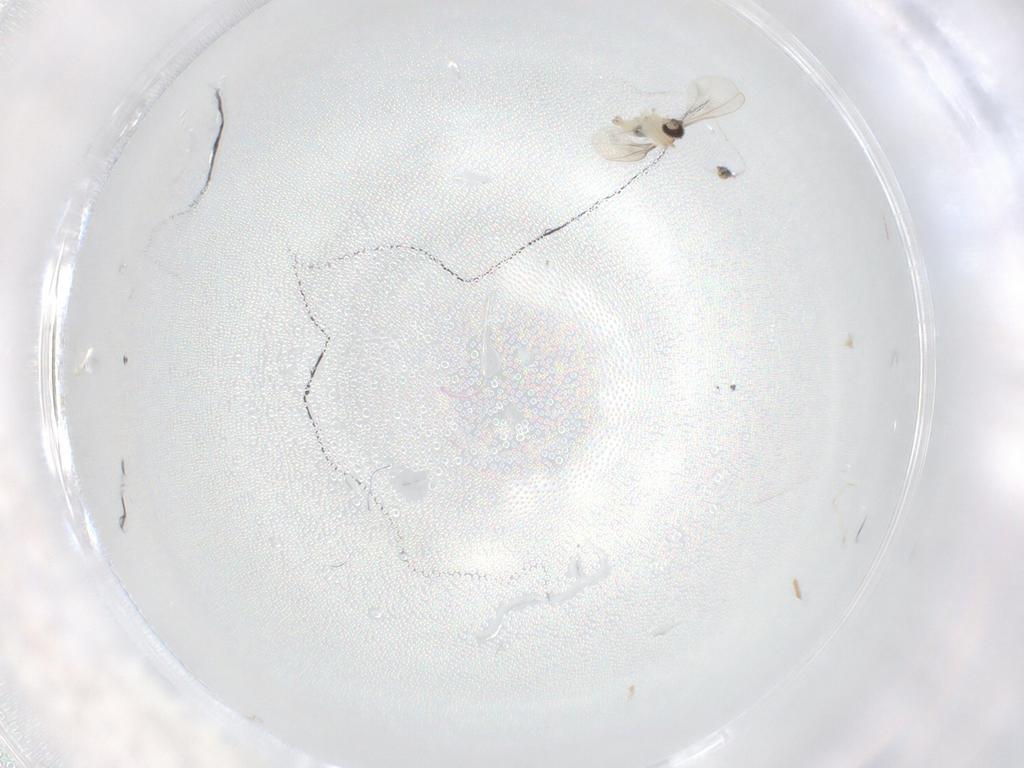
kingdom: Animalia
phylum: Arthropoda
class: Insecta
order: Diptera
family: Cecidomyiidae
